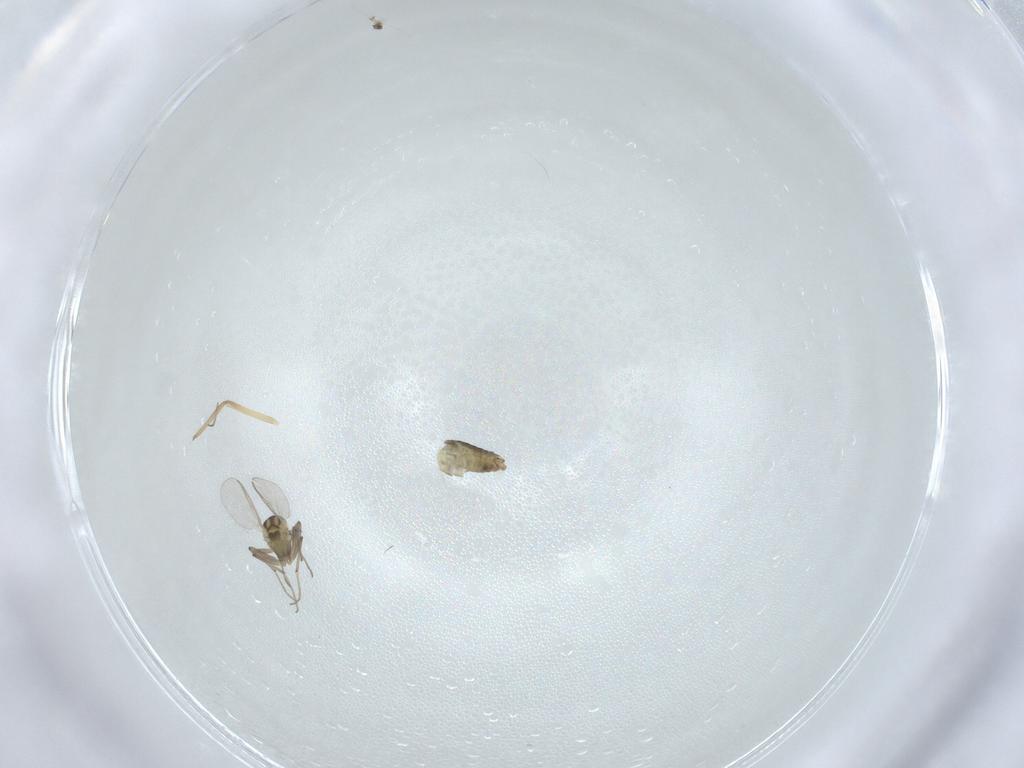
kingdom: Animalia
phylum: Arthropoda
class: Insecta
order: Diptera
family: Chironomidae
